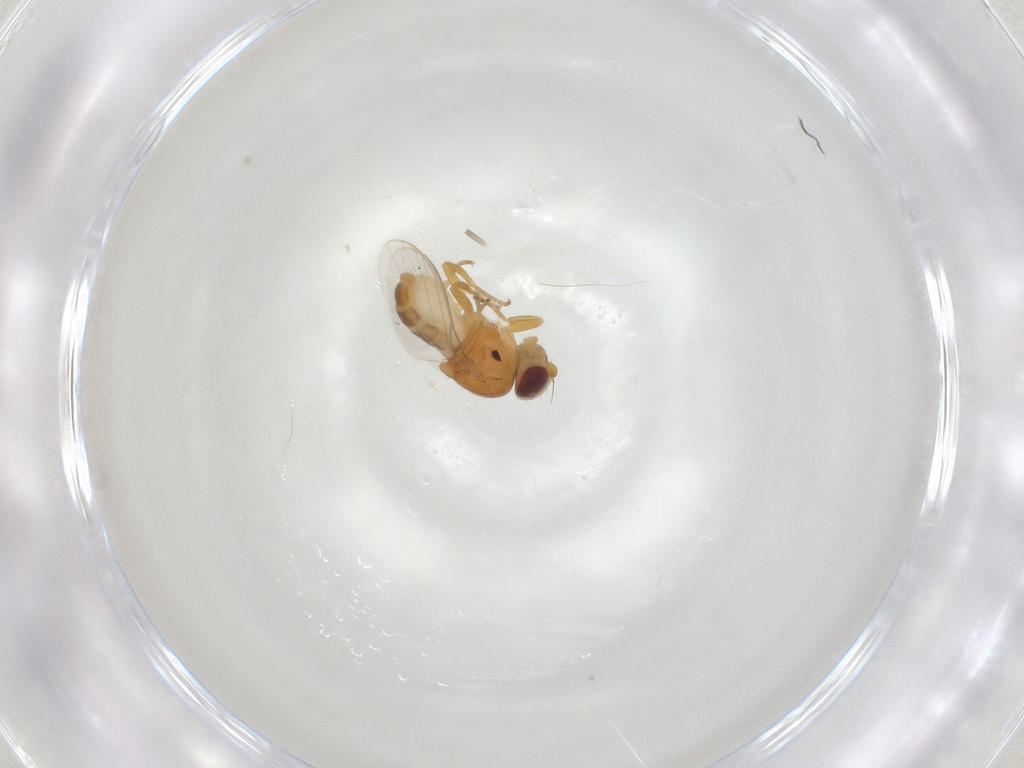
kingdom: Animalia
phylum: Arthropoda
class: Insecta
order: Diptera
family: Chloropidae
